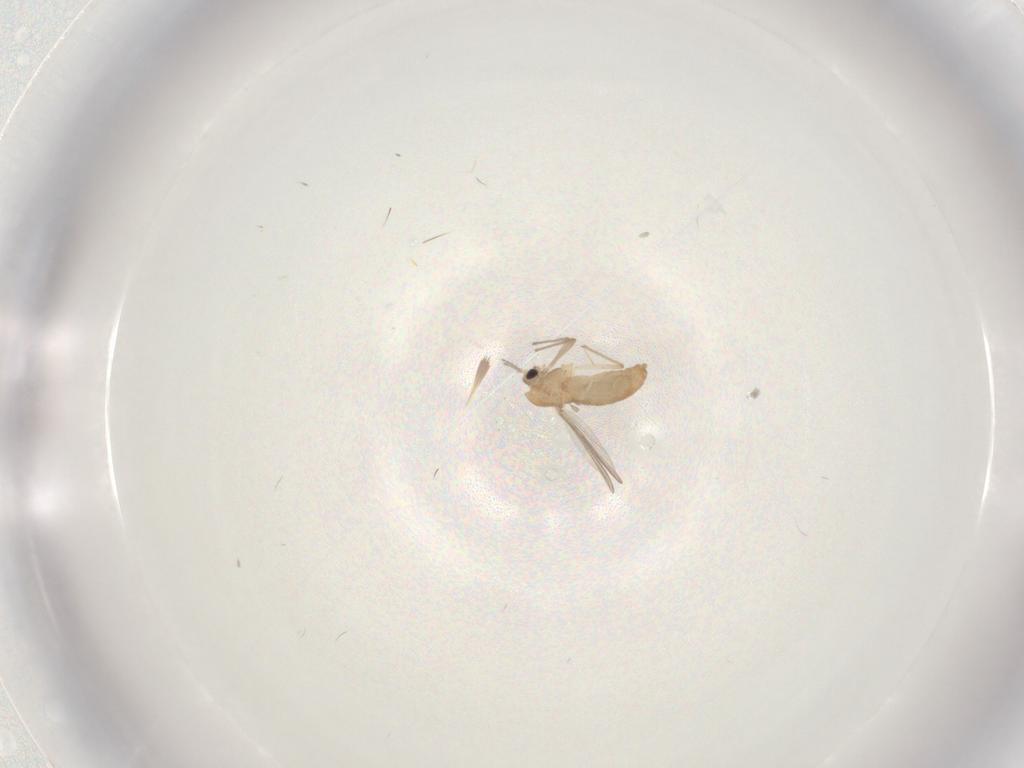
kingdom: Animalia
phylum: Arthropoda
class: Insecta
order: Diptera
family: Chironomidae
